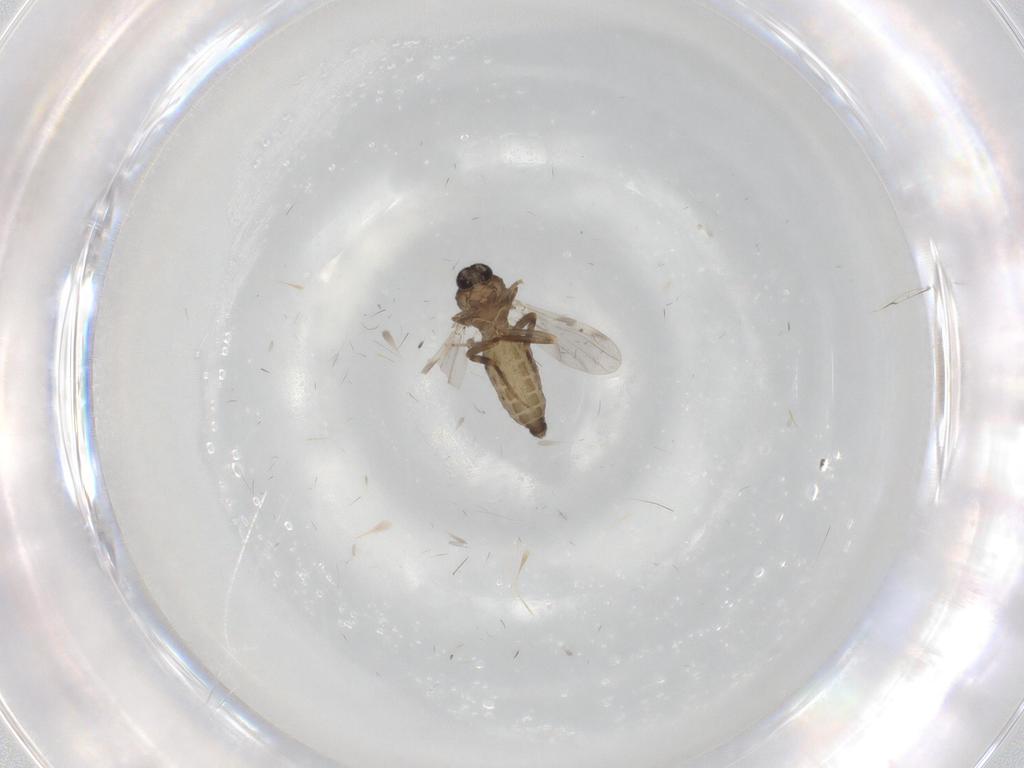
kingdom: Animalia
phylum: Arthropoda
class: Insecta
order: Diptera
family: Ceratopogonidae
